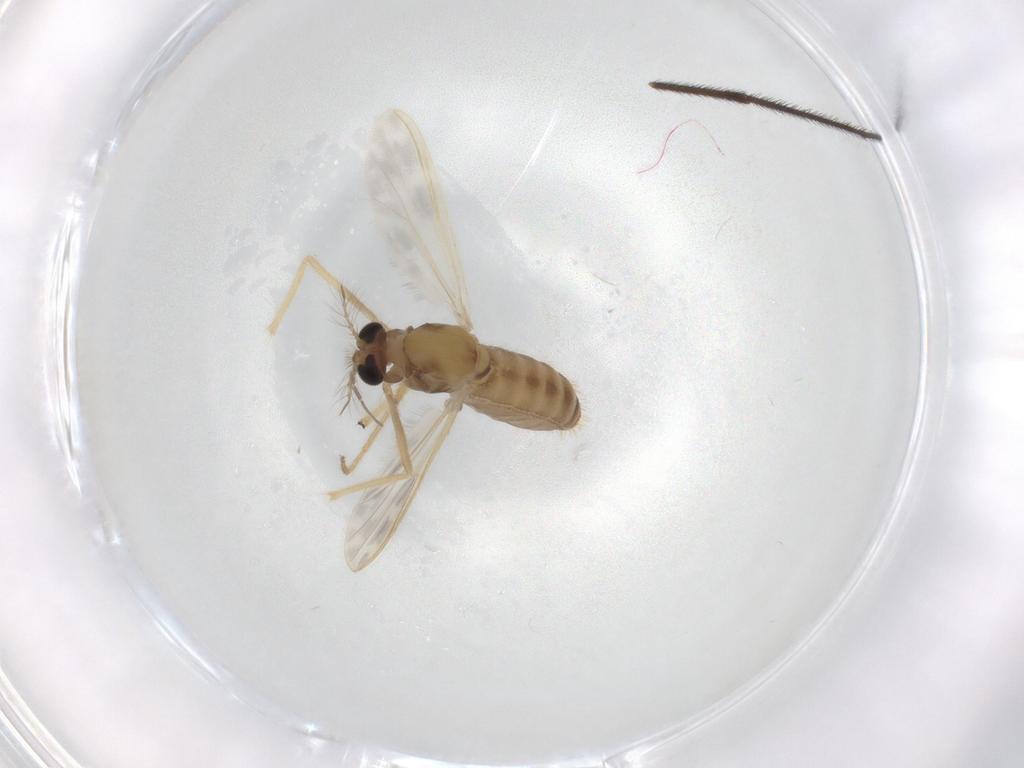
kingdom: Animalia
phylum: Arthropoda
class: Insecta
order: Diptera
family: Chironomidae
